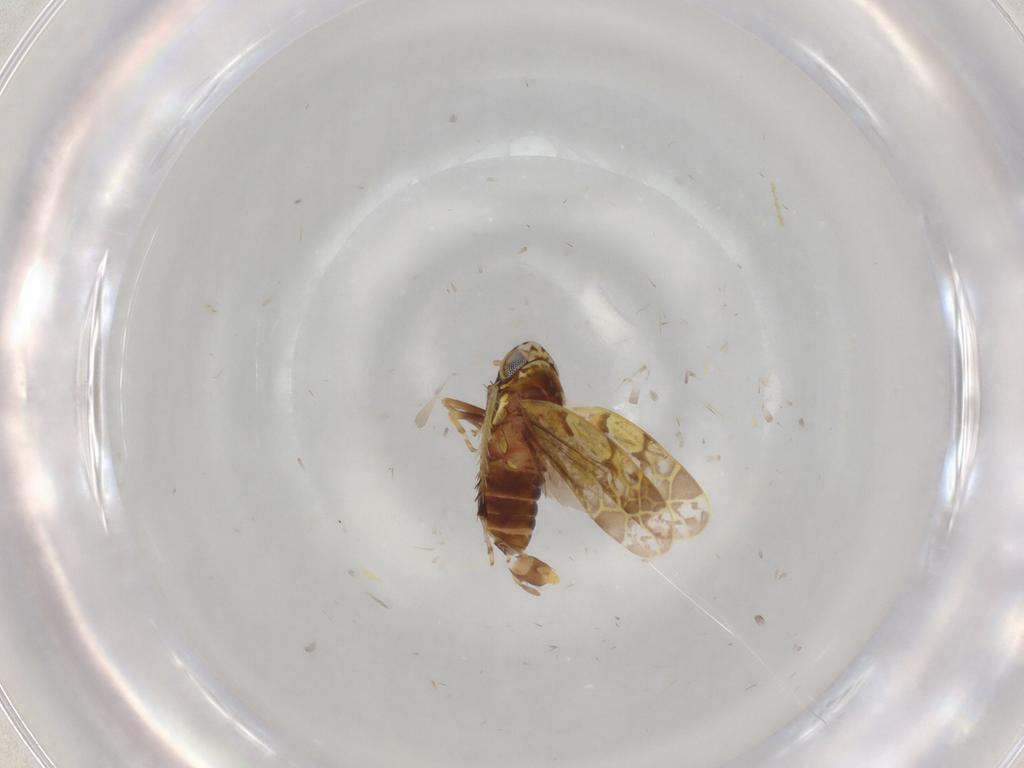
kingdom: Animalia
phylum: Arthropoda
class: Insecta
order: Hemiptera
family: Cicadellidae
